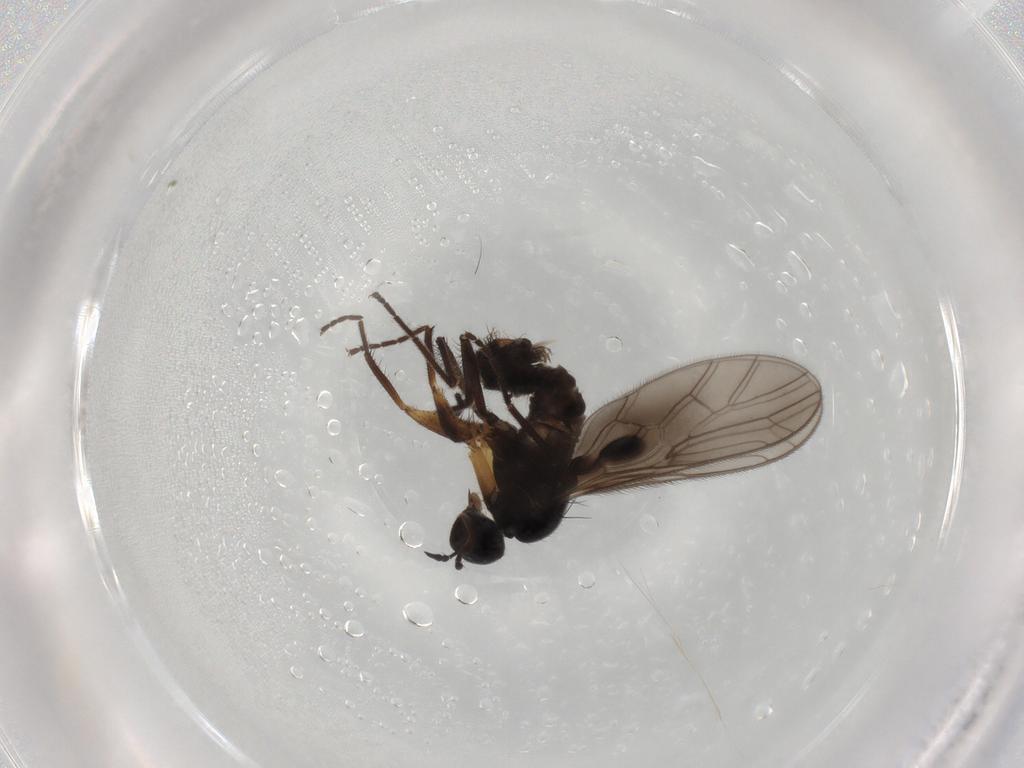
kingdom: Animalia
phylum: Arthropoda
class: Insecta
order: Diptera
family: Empididae
